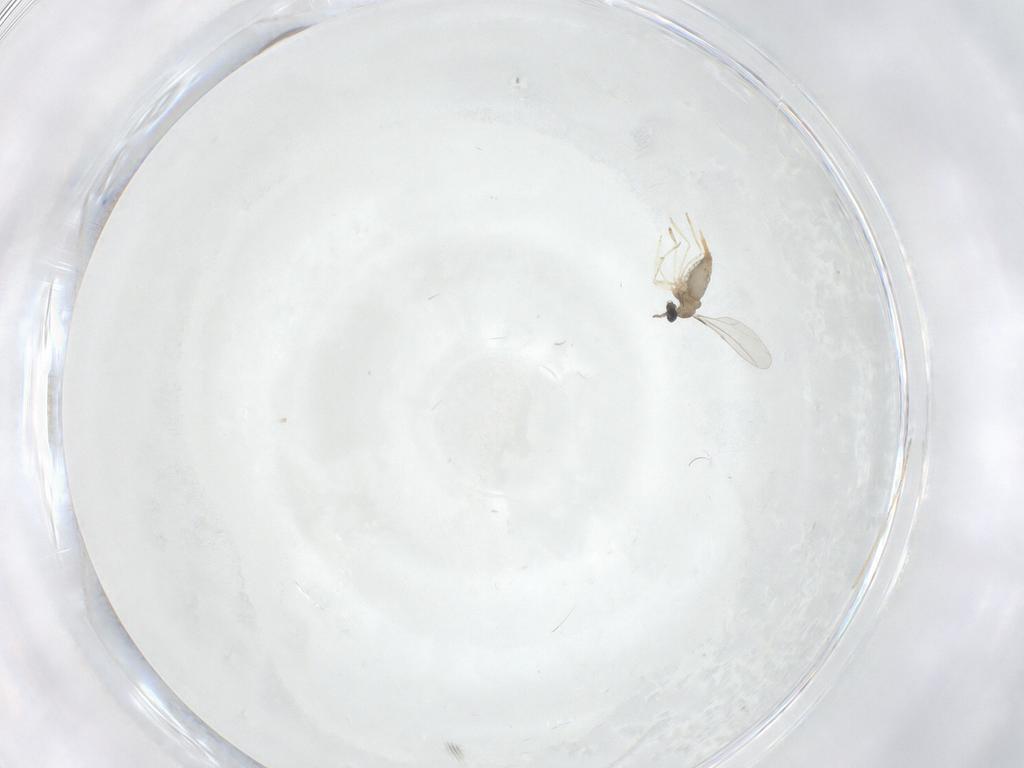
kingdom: Animalia
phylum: Arthropoda
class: Insecta
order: Diptera
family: Cecidomyiidae
